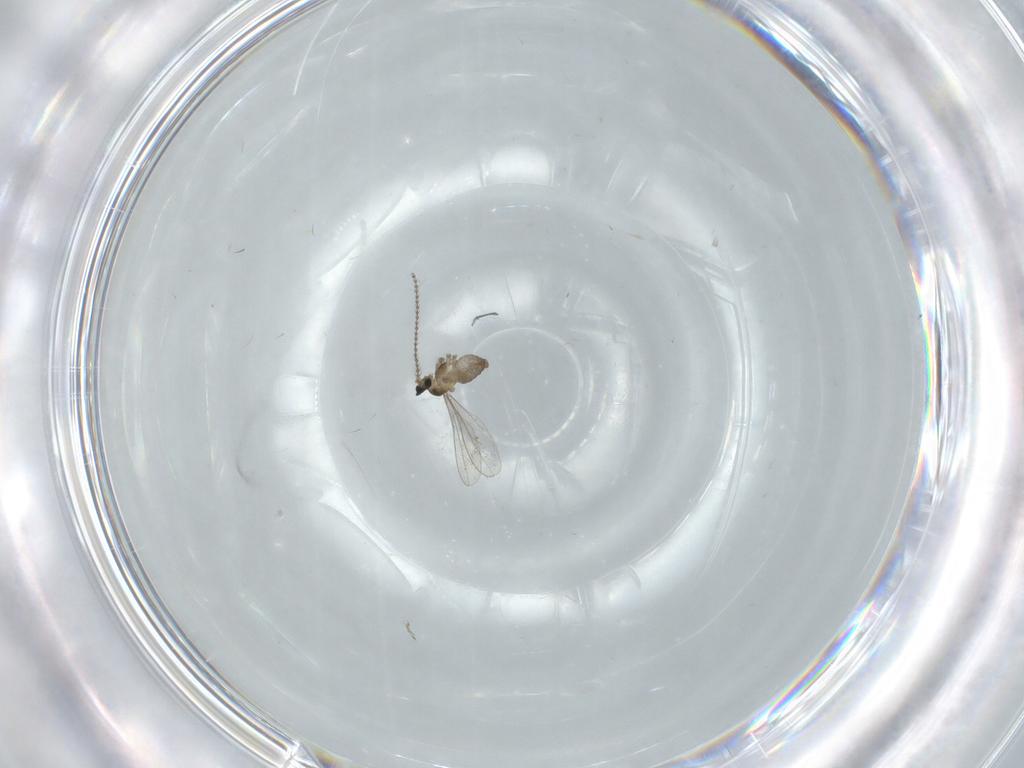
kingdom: Animalia
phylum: Arthropoda
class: Insecta
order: Diptera
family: Cecidomyiidae
